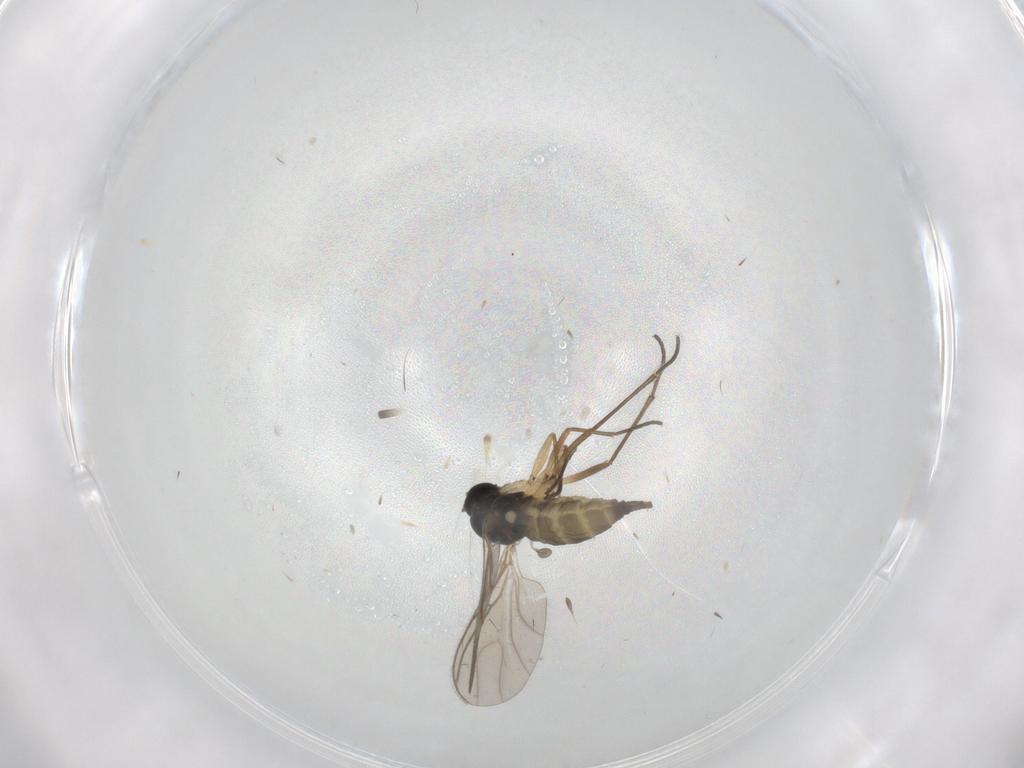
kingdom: Animalia
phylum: Arthropoda
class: Insecta
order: Diptera
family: Sciaridae
